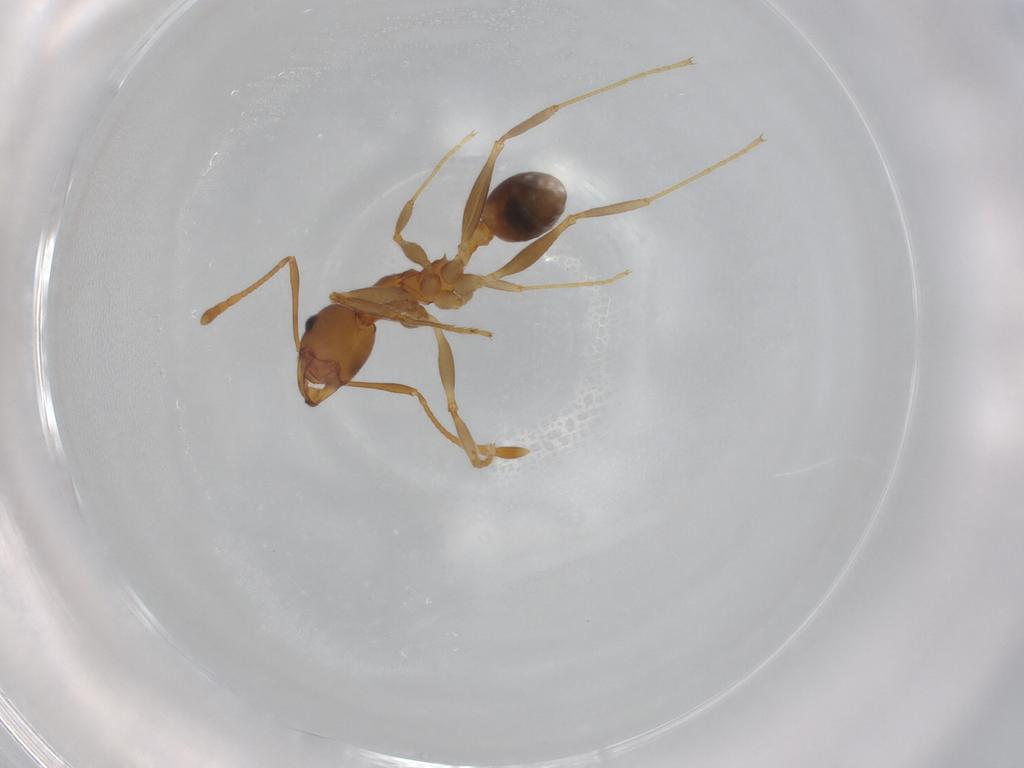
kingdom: Animalia
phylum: Arthropoda
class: Insecta
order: Hymenoptera
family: Formicidae
